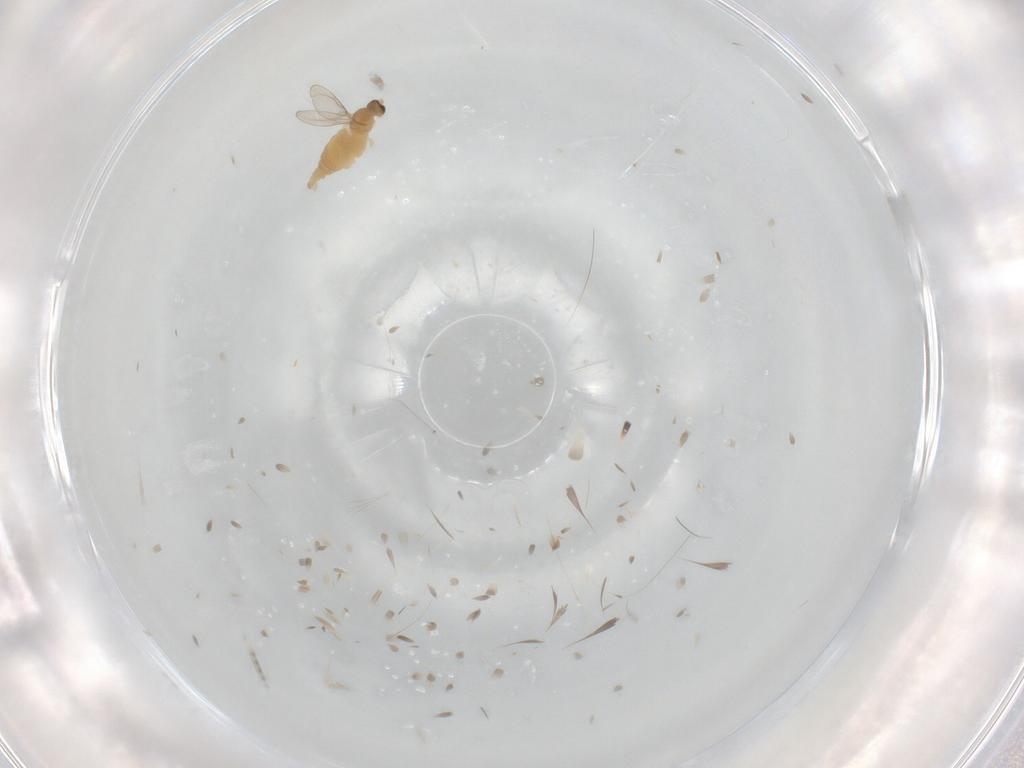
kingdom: Animalia
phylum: Arthropoda
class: Insecta
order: Diptera
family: Cecidomyiidae
